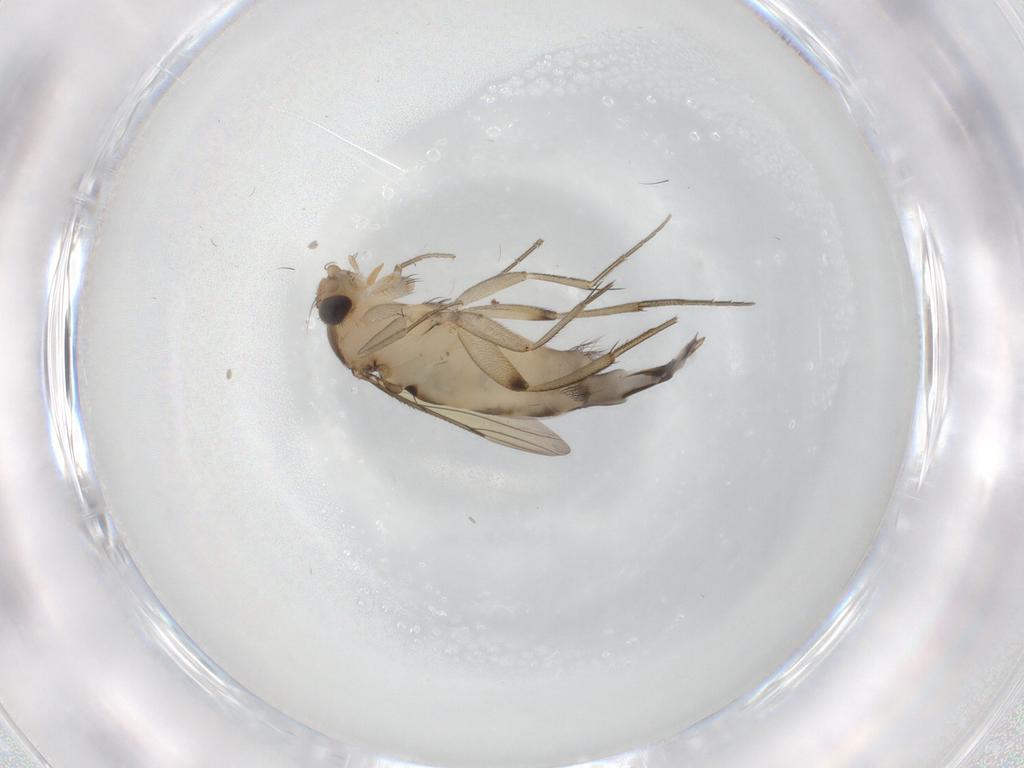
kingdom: Animalia
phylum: Arthropoda
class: Insecta
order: Diptera
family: Phoridae
